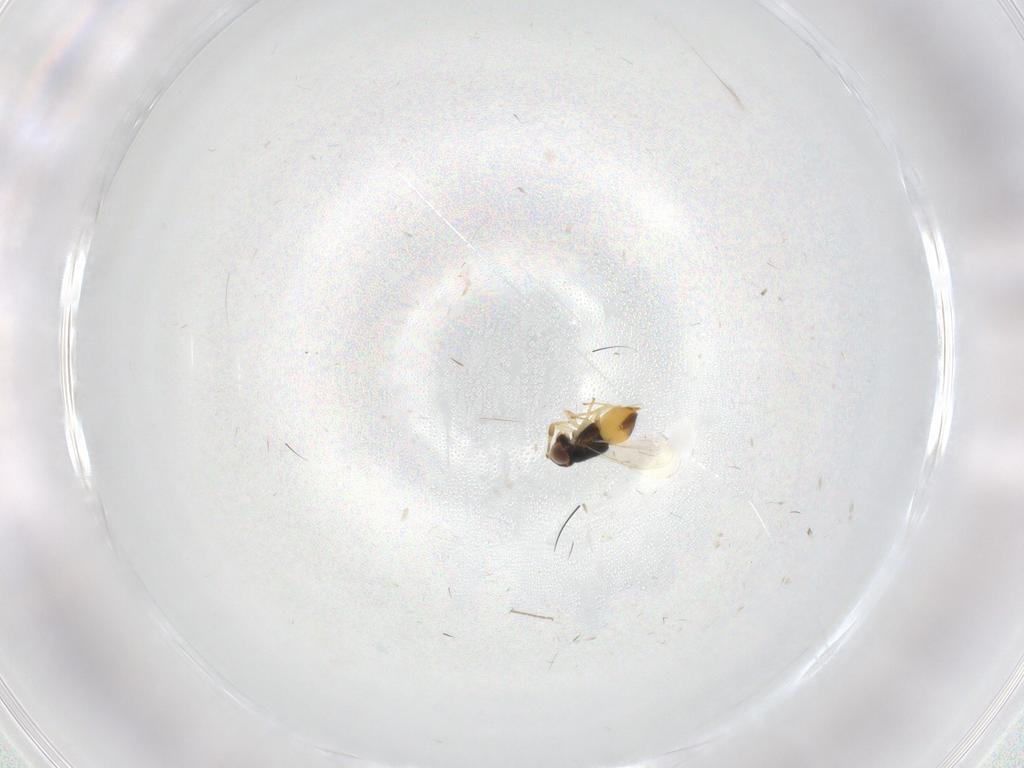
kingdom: Animalia
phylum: Arthropoda
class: Insecta
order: Hymenoptera
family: Encyrtidae
